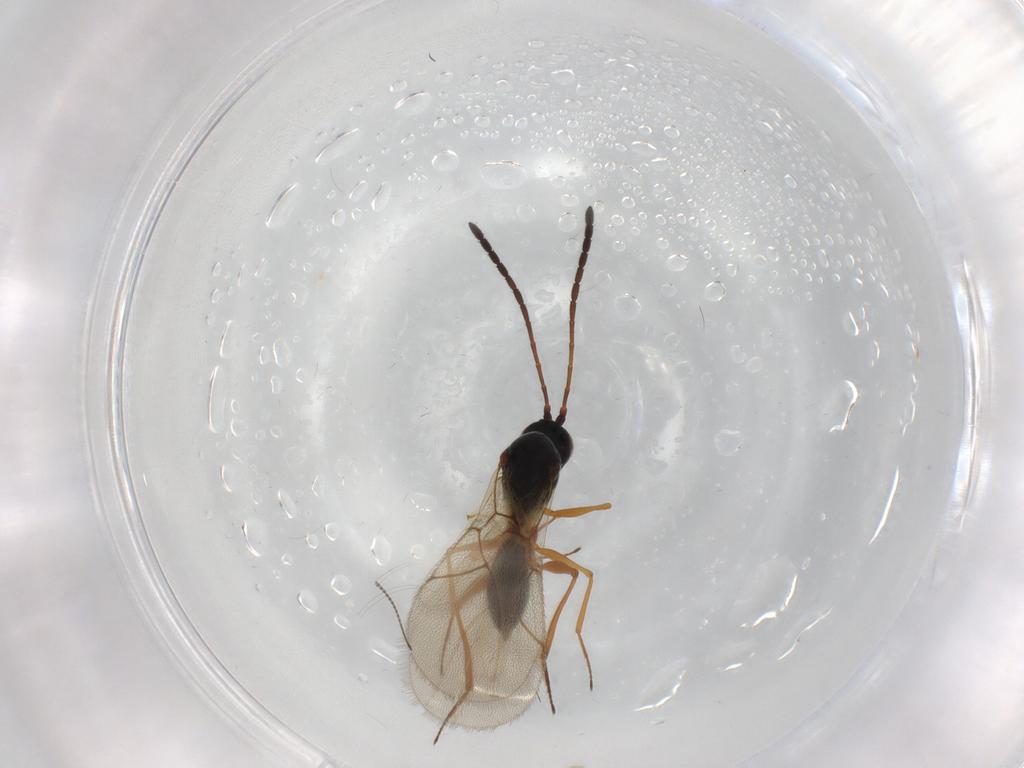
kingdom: Animalia
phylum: Arthropoda
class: Insecta
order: Hymenoptera
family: Figitidae
